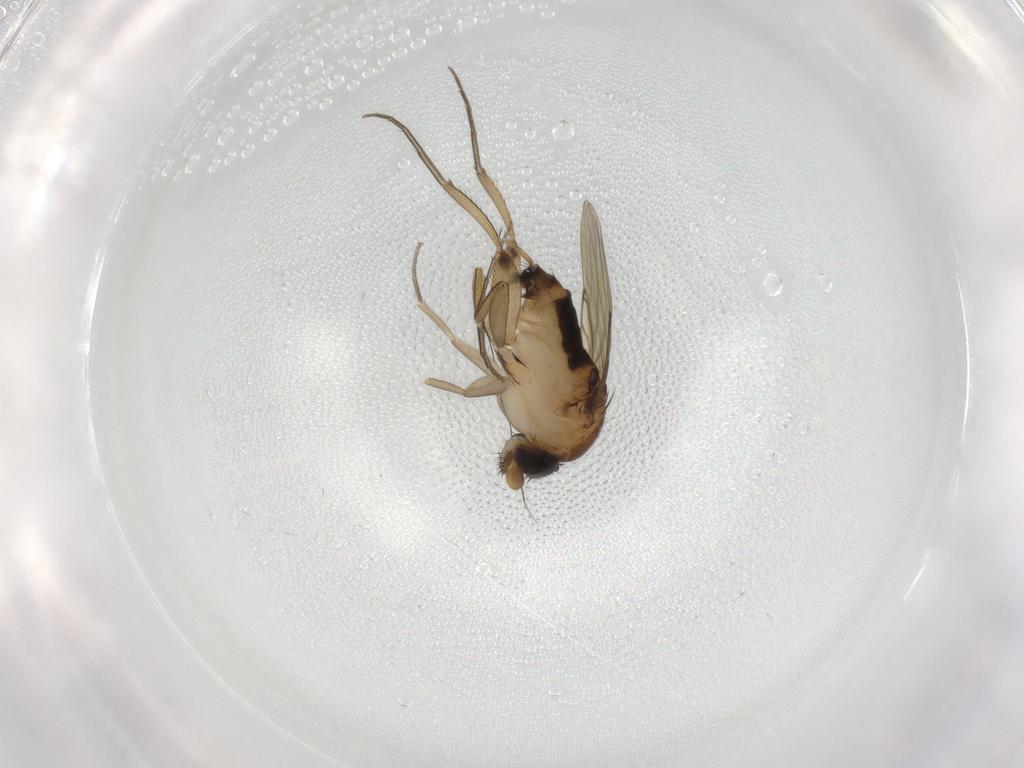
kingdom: Animalia
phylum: Arthropoda
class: Insecta
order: Diptera
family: Phoridae
